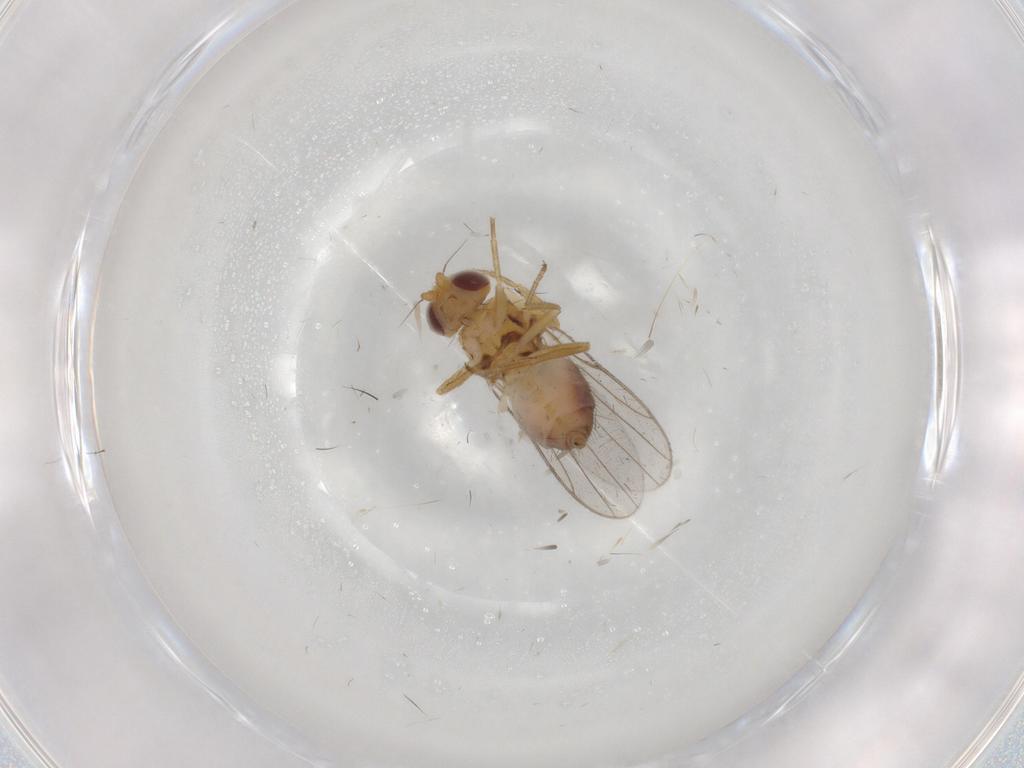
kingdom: Animalia
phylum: Arthropoda
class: Insecta
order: Diptera
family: Chloropidae
